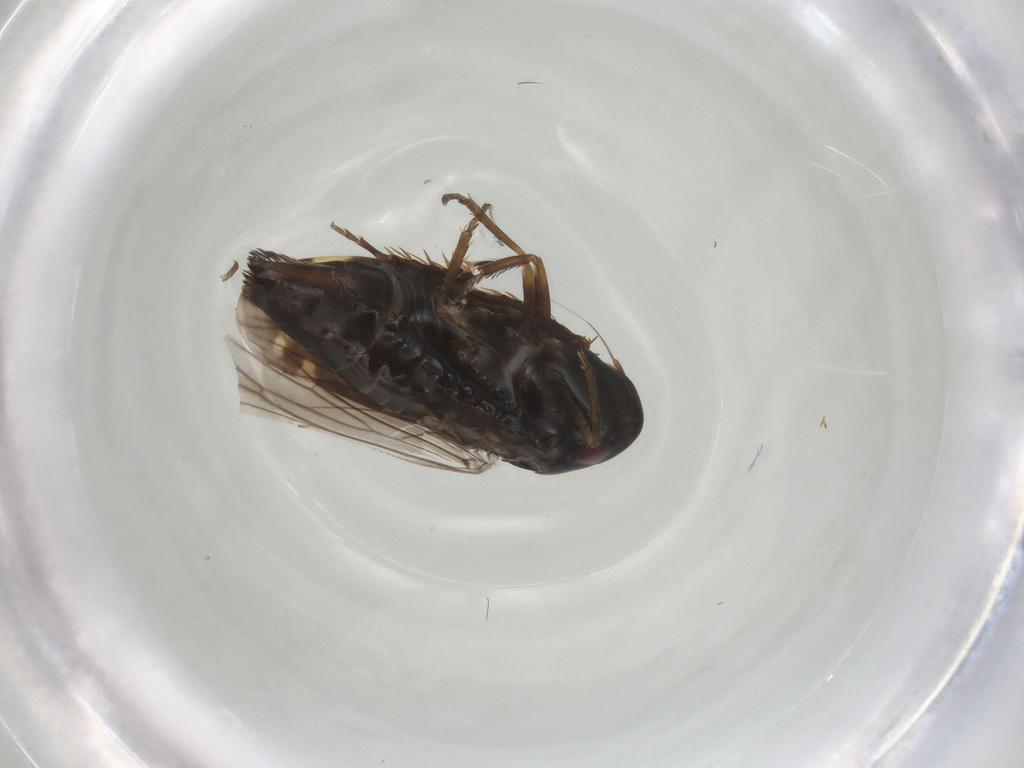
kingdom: Animalia
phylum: Arthropoda
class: Insecta
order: Hemiptera
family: Cicadellidae
